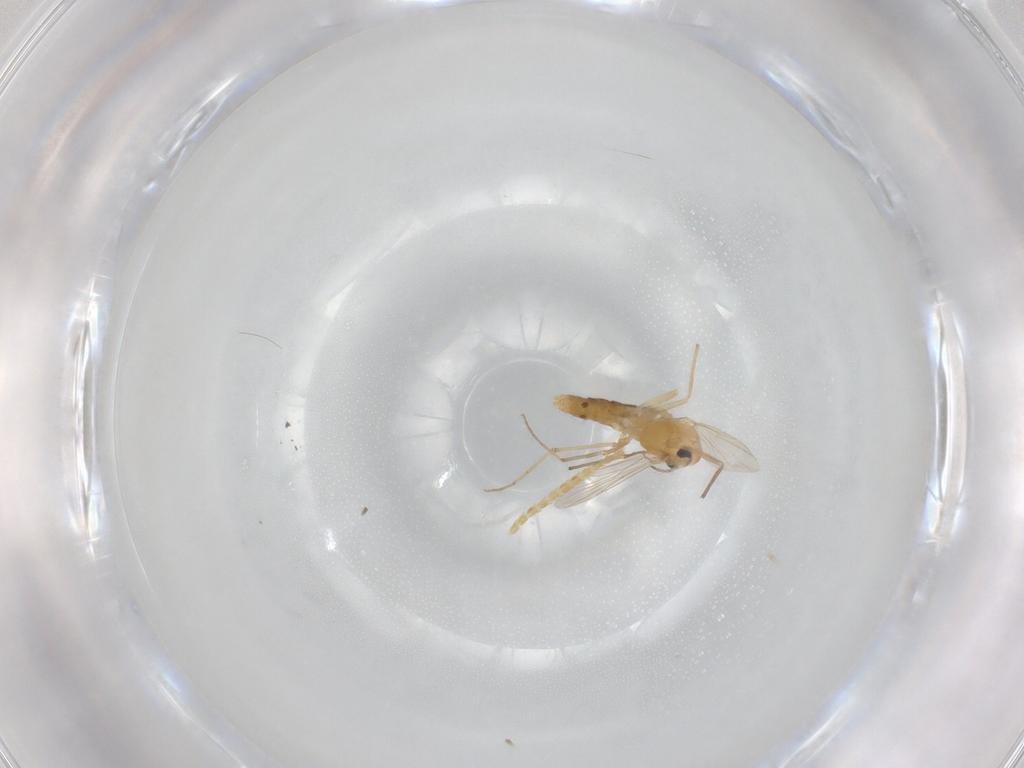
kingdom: Animalia
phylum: Arthropoda
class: Insecta
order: Diptera
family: Chironomidae
